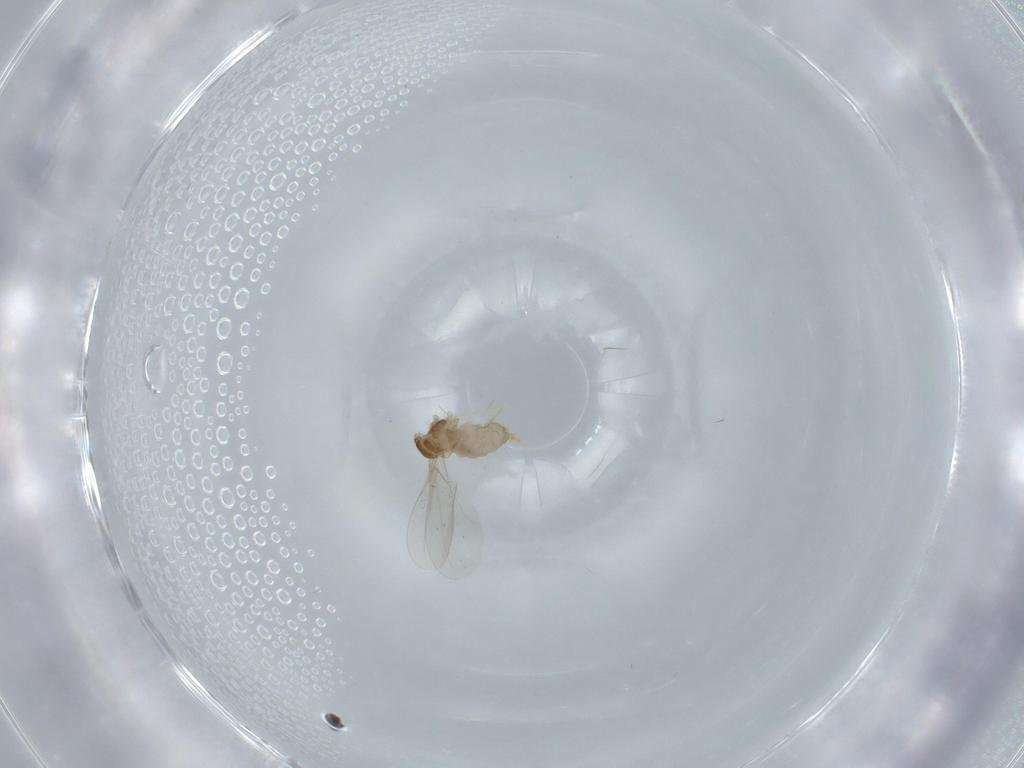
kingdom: Animalia
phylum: Arthropoda
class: Insecta
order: Diptera
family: Cecidomyiidae
